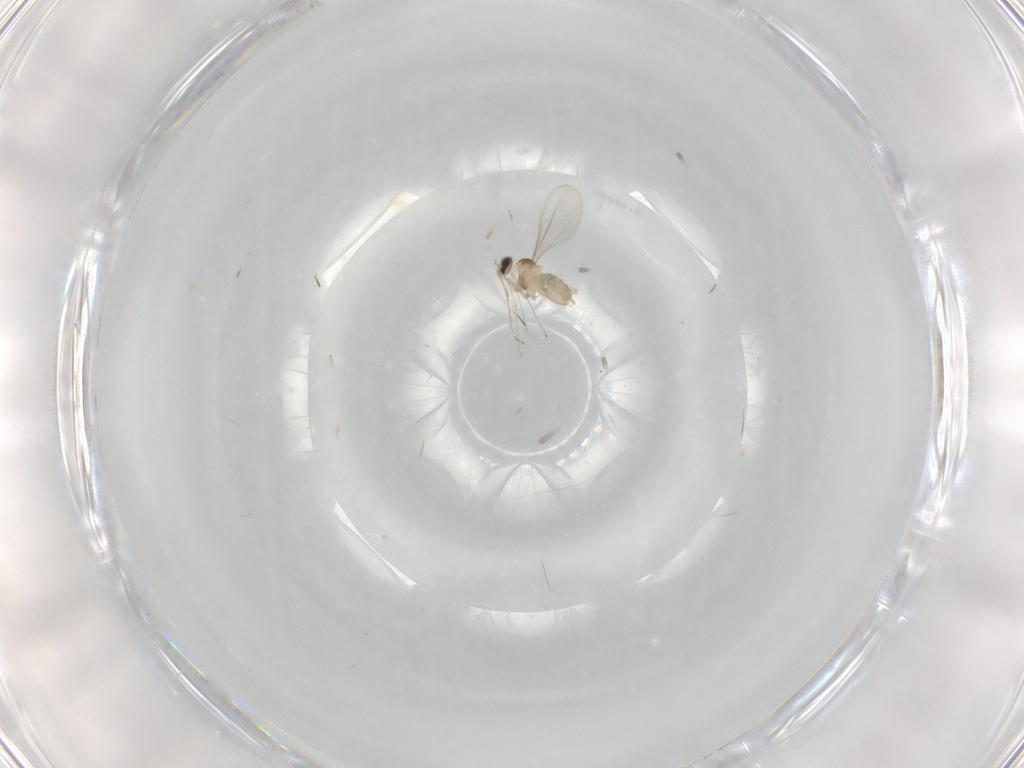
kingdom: Animalia
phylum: Arthropoda
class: Insecta
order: Diptera
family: Cecidomyiidae
